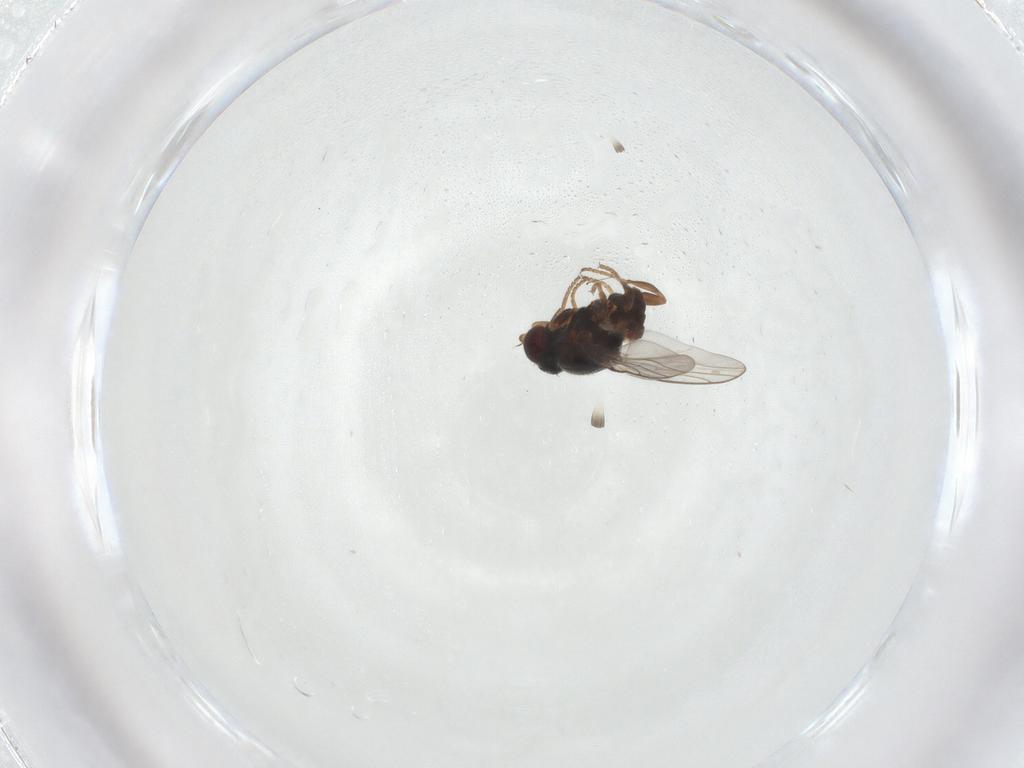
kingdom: Animalia
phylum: Arthropoda
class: Insecta
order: Diptera
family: Chloropidae
